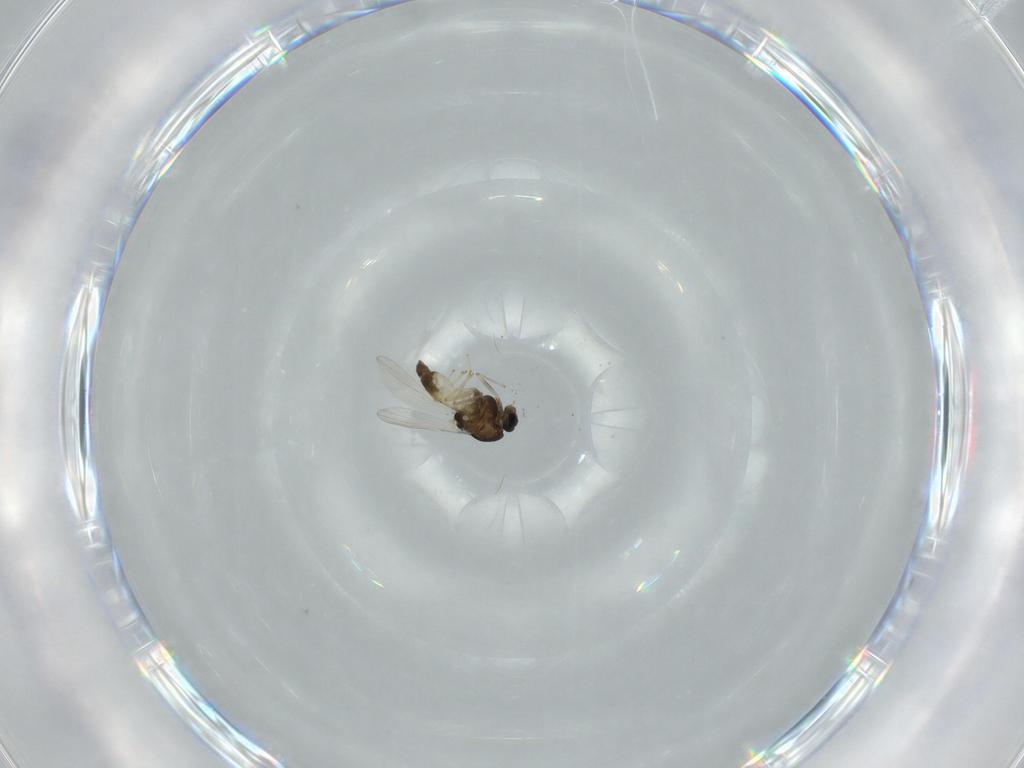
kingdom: Animalia
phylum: Arthropoda
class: Insecta
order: Diptera
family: Chironomidae
